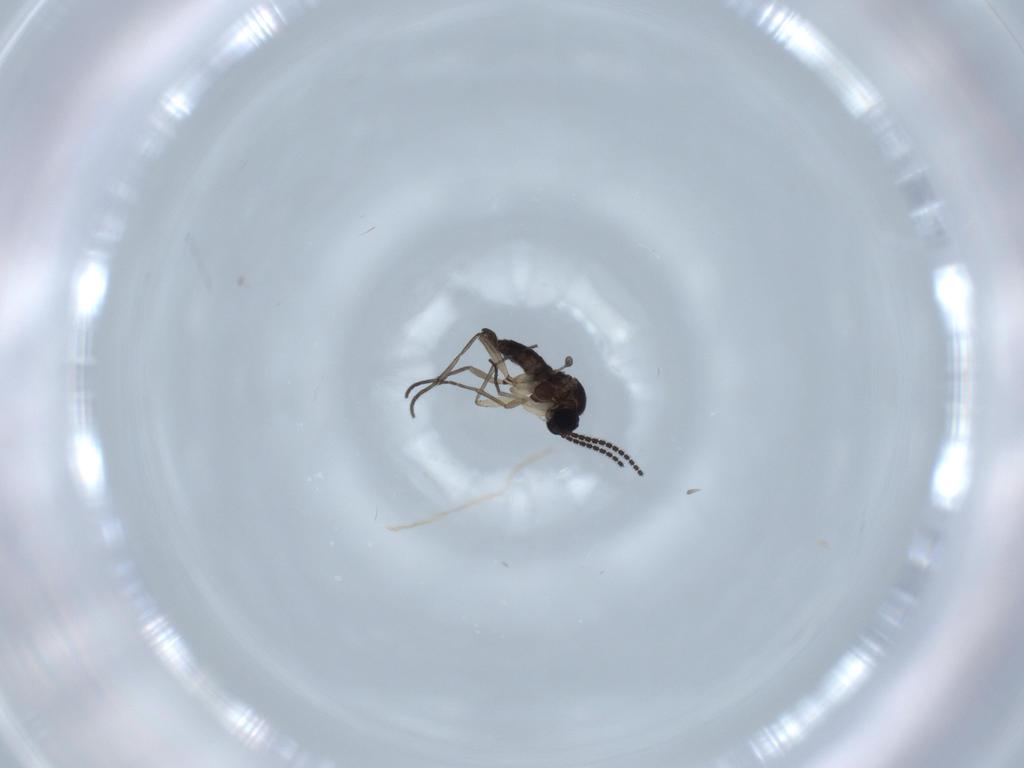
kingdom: Animalia
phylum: Arthropoda
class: Insecta
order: Diptera
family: Sciaridae
